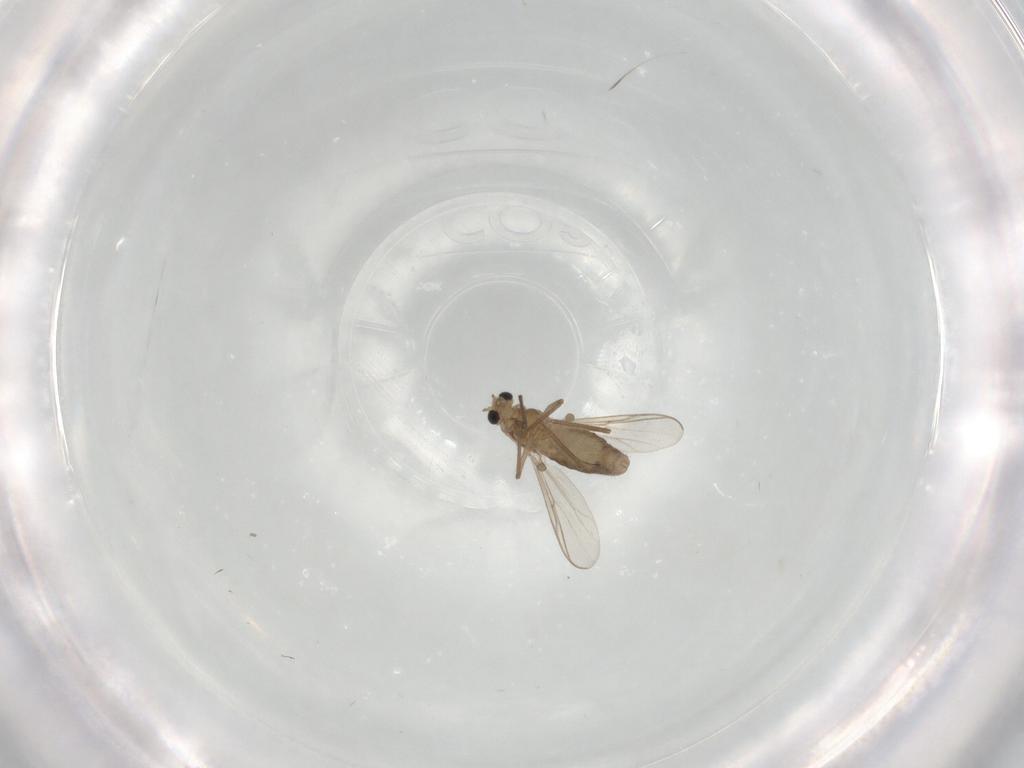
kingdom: Animalia
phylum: Arthropoda
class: Insecta
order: Diptera
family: Chironomidae
